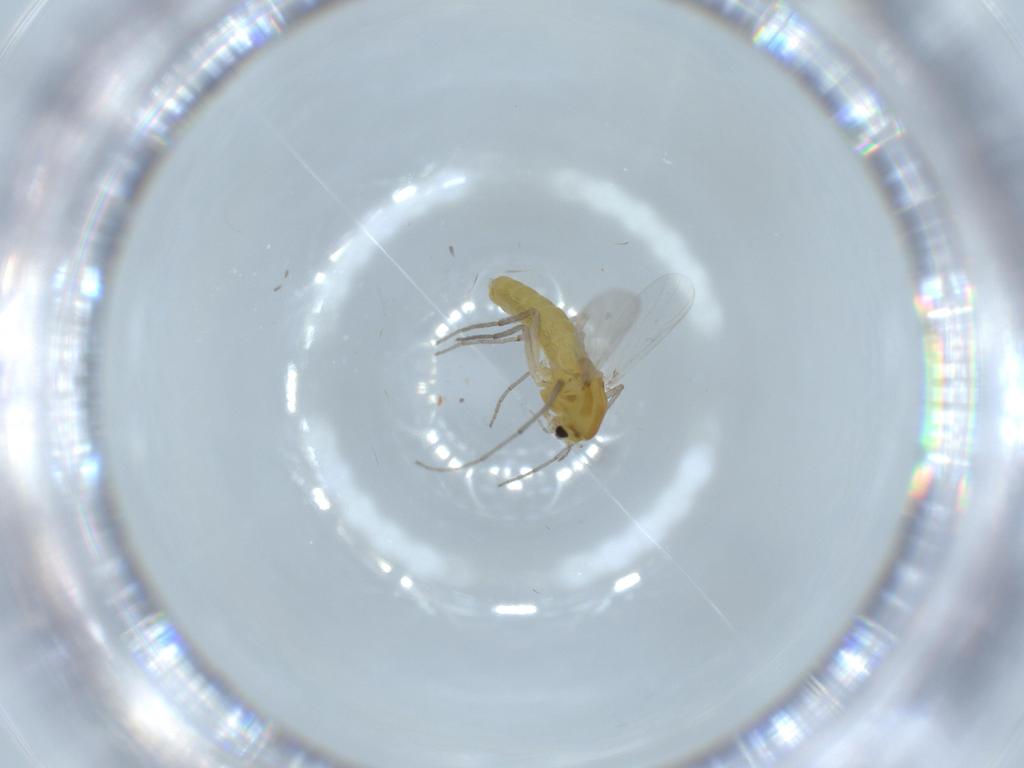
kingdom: Animalia
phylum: Arthropoda
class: Insecta
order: Diptera
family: Chironomidae
